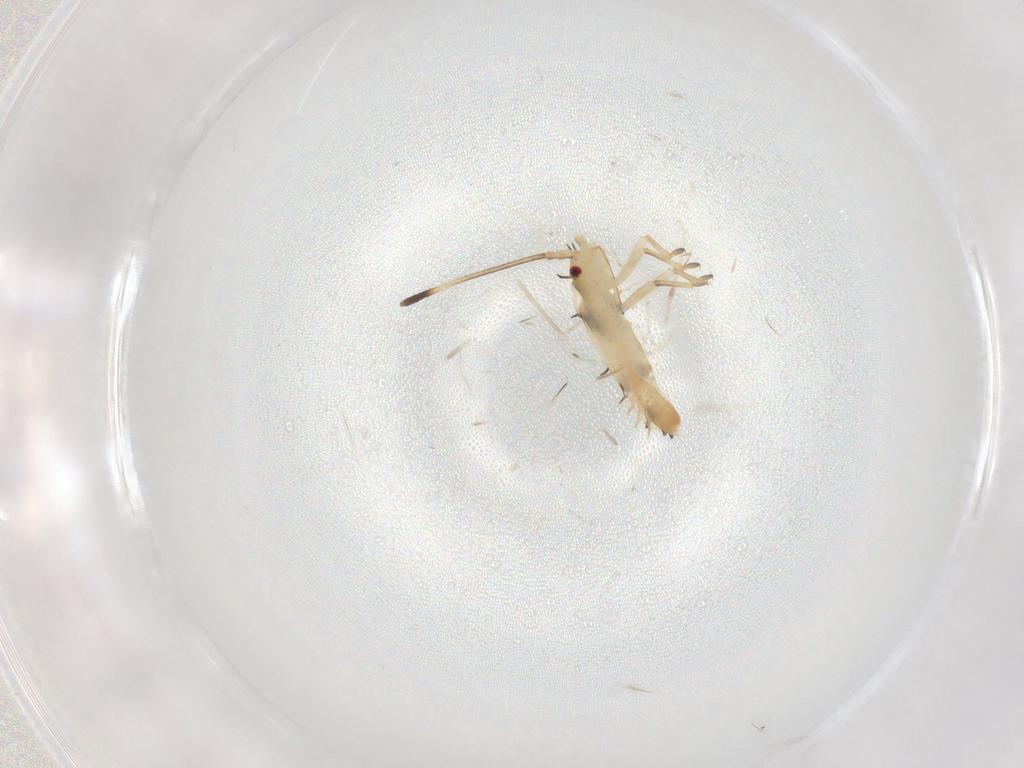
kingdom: Animalia
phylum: Arthropoda
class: Insecta
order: Hemiptera
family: Tingidae
